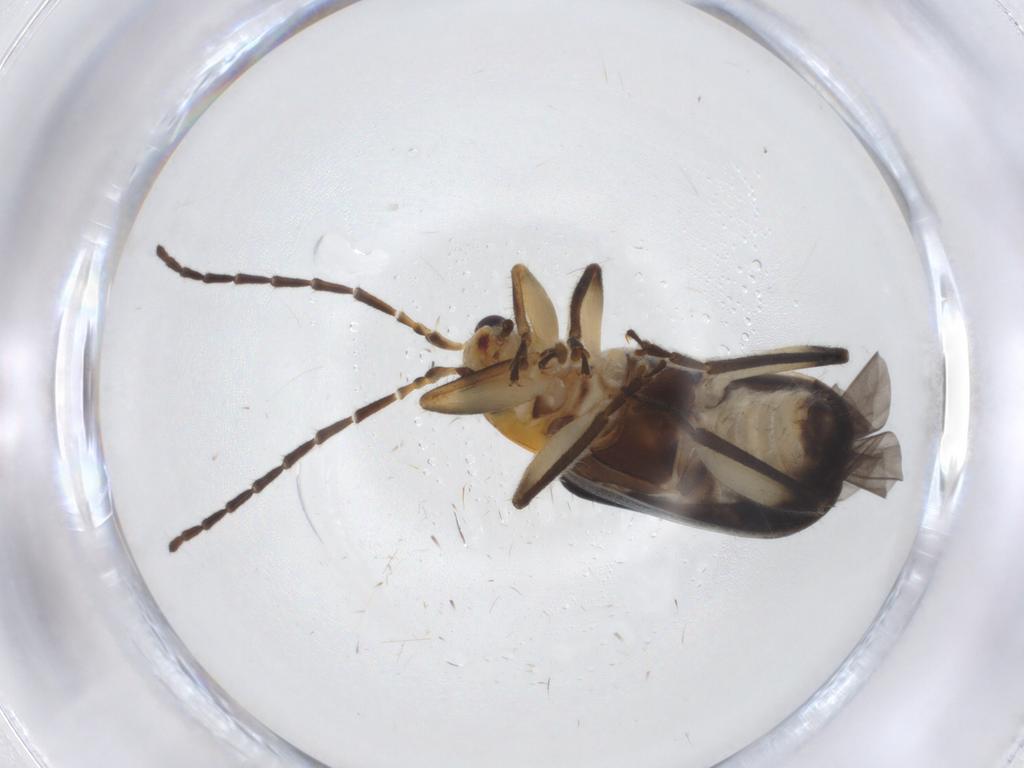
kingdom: Animalia
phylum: Arthropoda
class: Insecta
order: Coleoptera
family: Chrysomelidae
